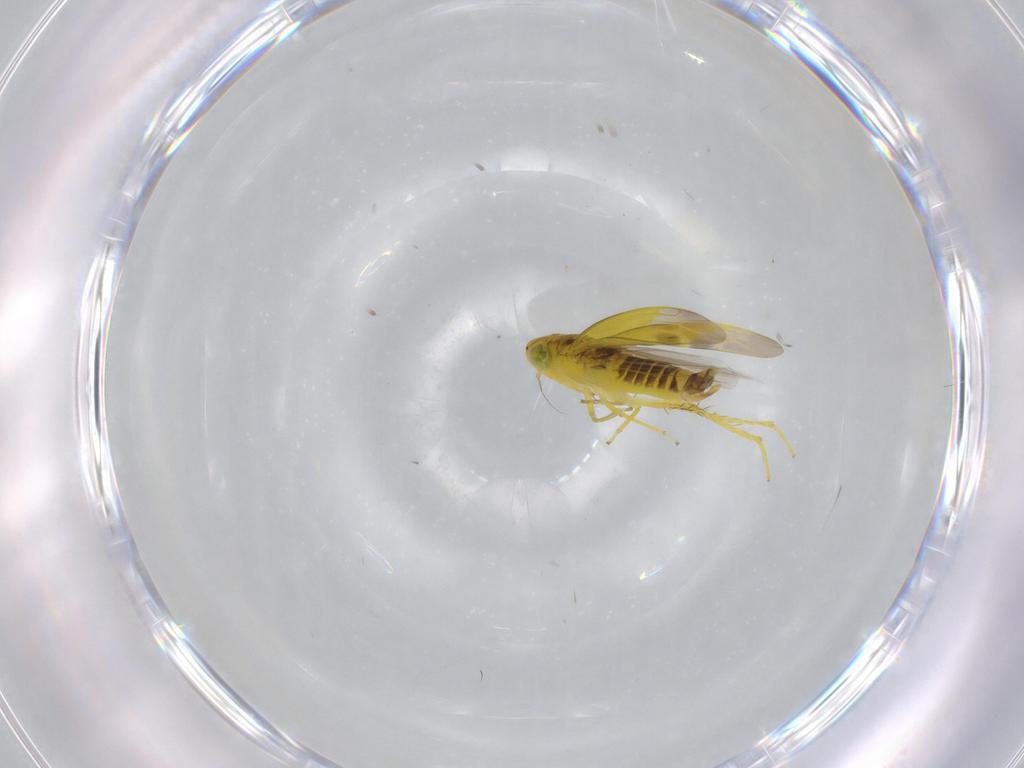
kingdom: Animalia
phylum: Arthropoda
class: Insecta
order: Hemiptera
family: Cicadellidae
